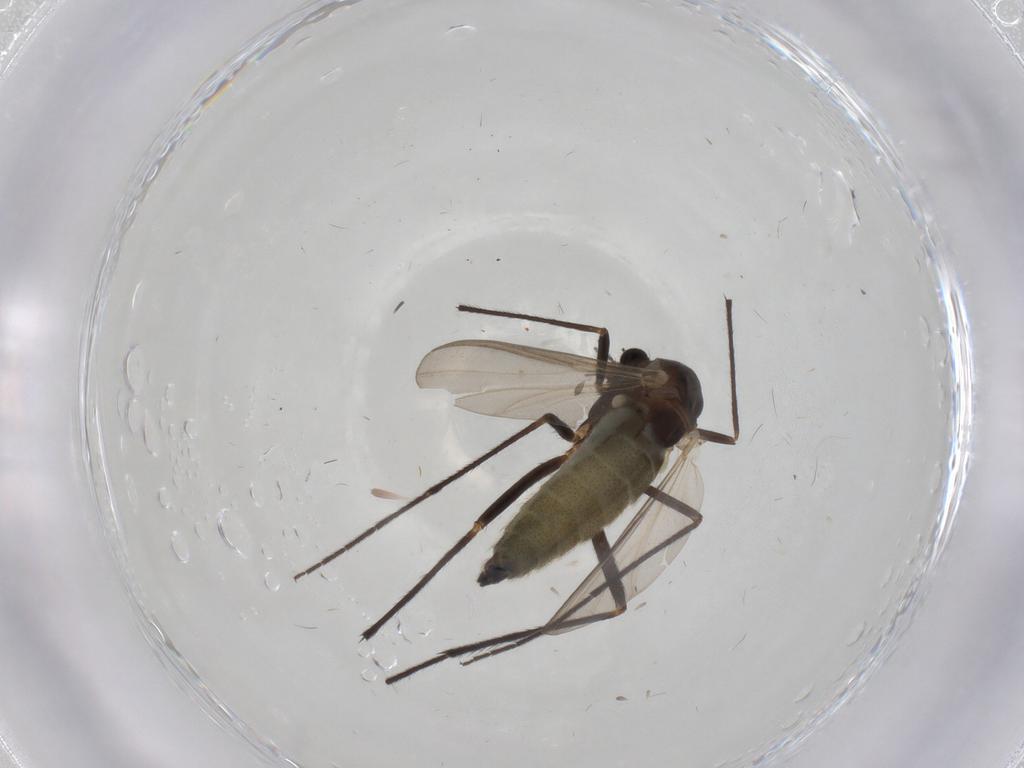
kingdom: Animalia
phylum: Arthropoda
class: Insecta
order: Diptera
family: Chironomidae
